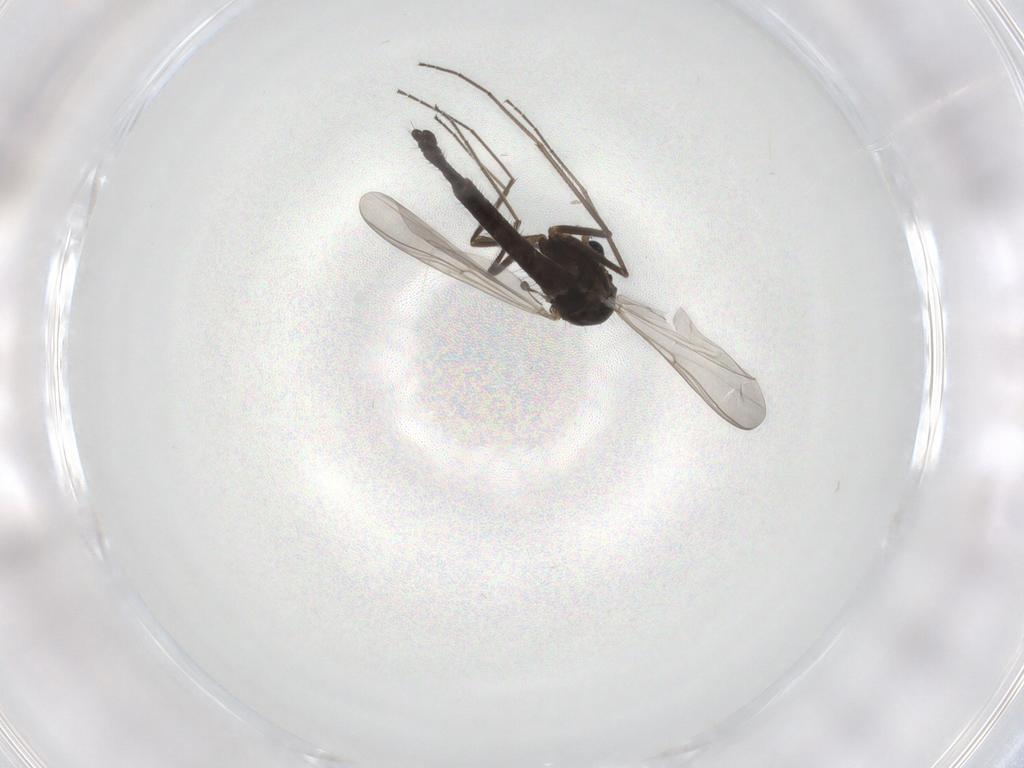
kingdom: Animalia
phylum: Arthropoda
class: Insecta
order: Diptera
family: Chironomidae
